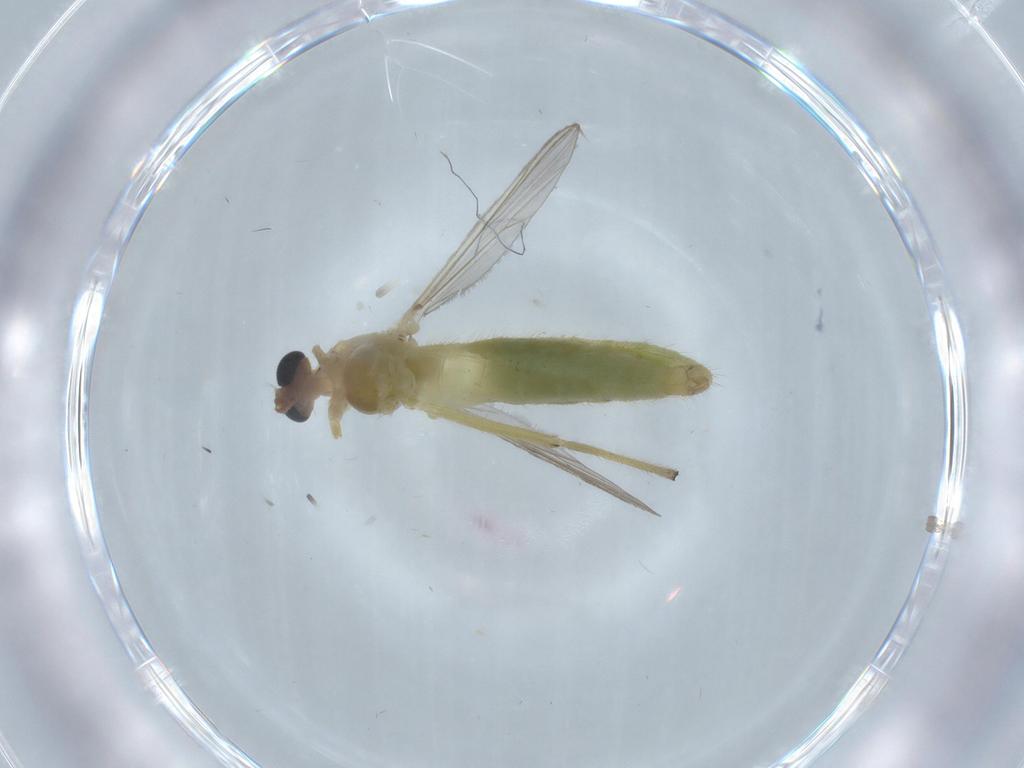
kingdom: Animalia
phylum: Arthropoda
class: Insecta
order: Diptera
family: Chironomidae
